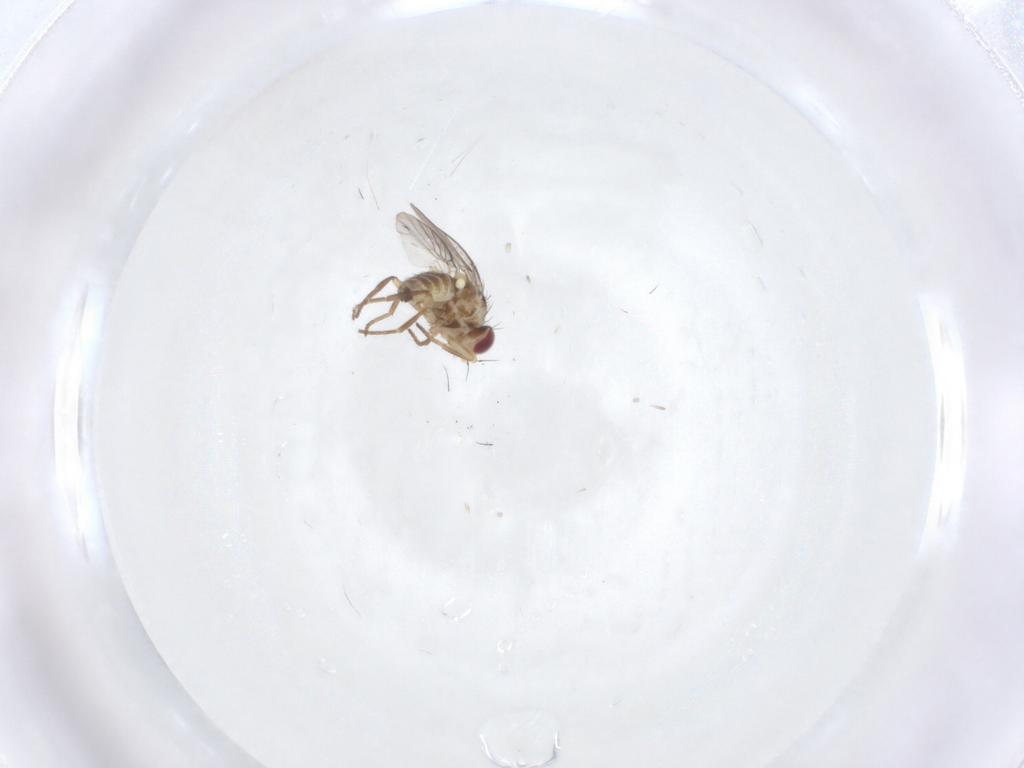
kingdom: Animalia
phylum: Arthropoda
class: Insecta
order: Diptera
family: Agromyzidae
